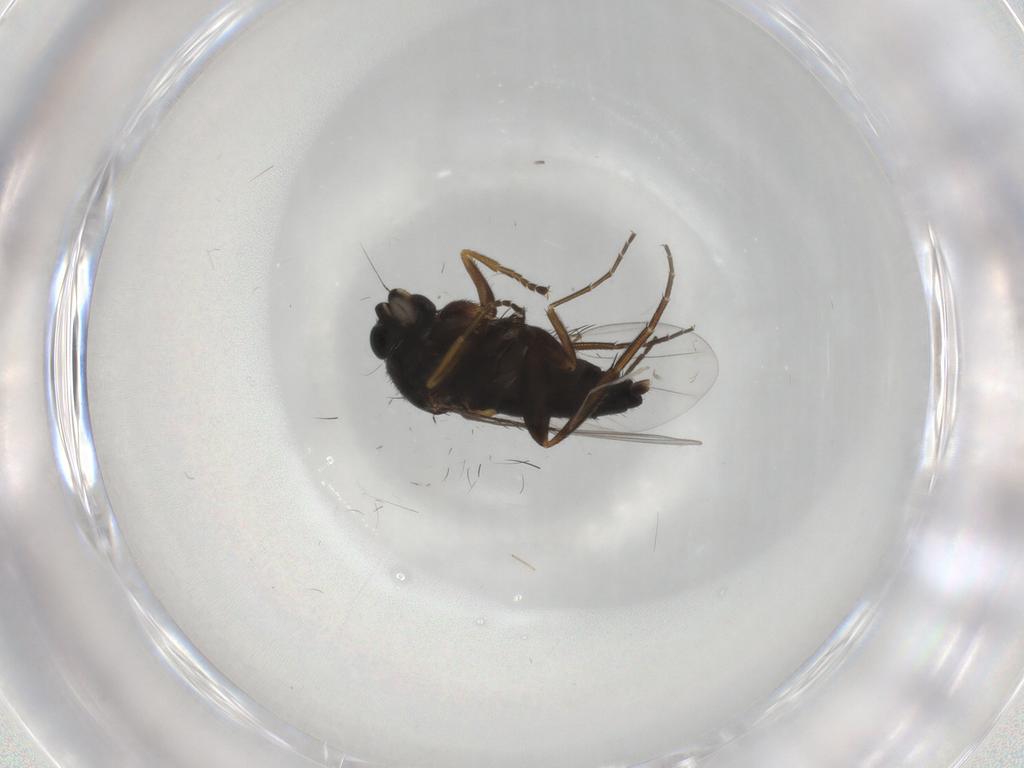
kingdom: Animalia
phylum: Arthropoda
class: Insecta
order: Diptera
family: Phoridae
